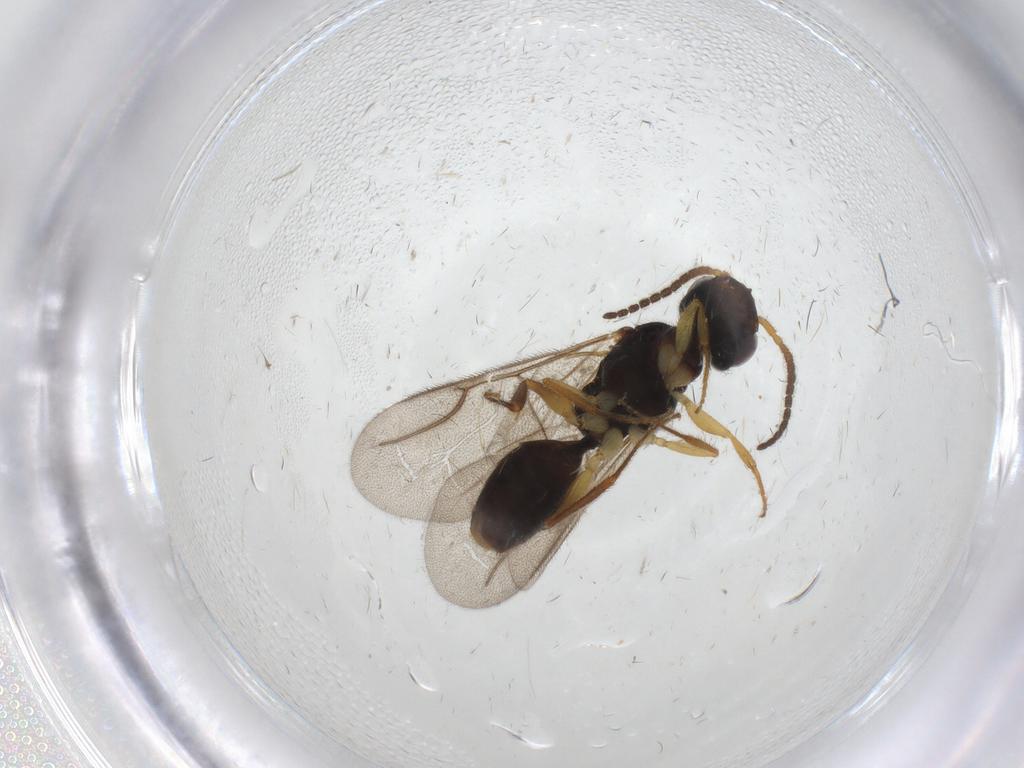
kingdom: Animalia
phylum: Arthropoda
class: Insecta
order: Hymenoptera
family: Bethylidae
